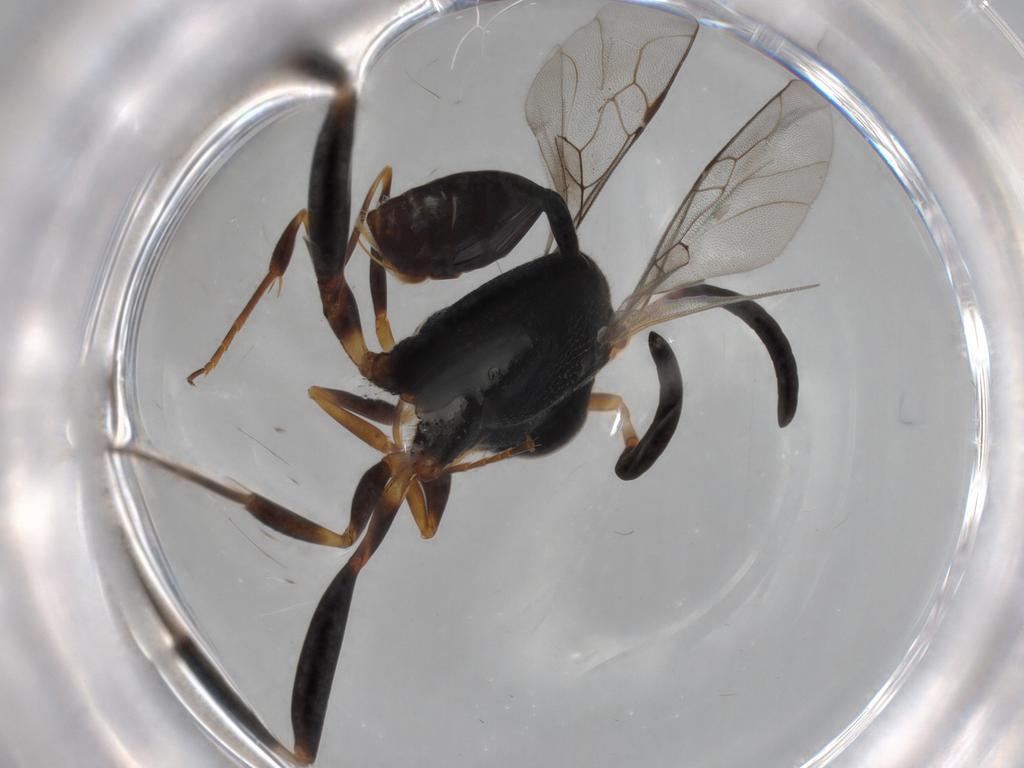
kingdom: Animalia
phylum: Arthropoda
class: Insecta
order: Hymenoptera
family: Evaniidae
